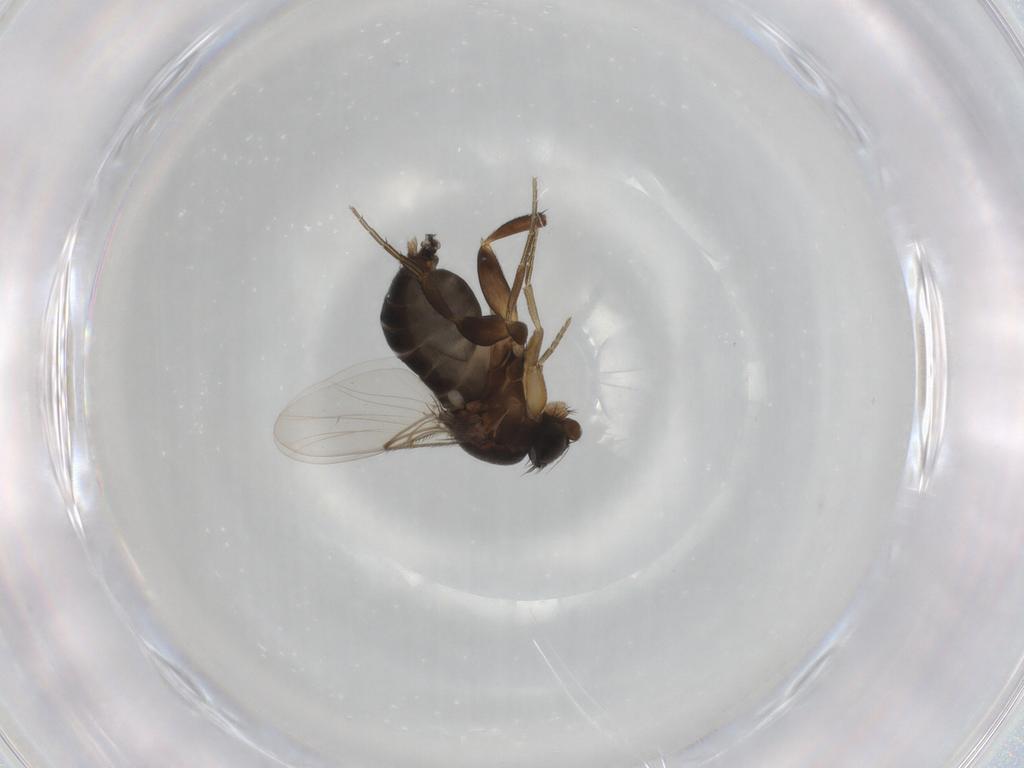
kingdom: Animalia
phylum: Arthropoda
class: Insecta
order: Diptera
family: Phoridae
